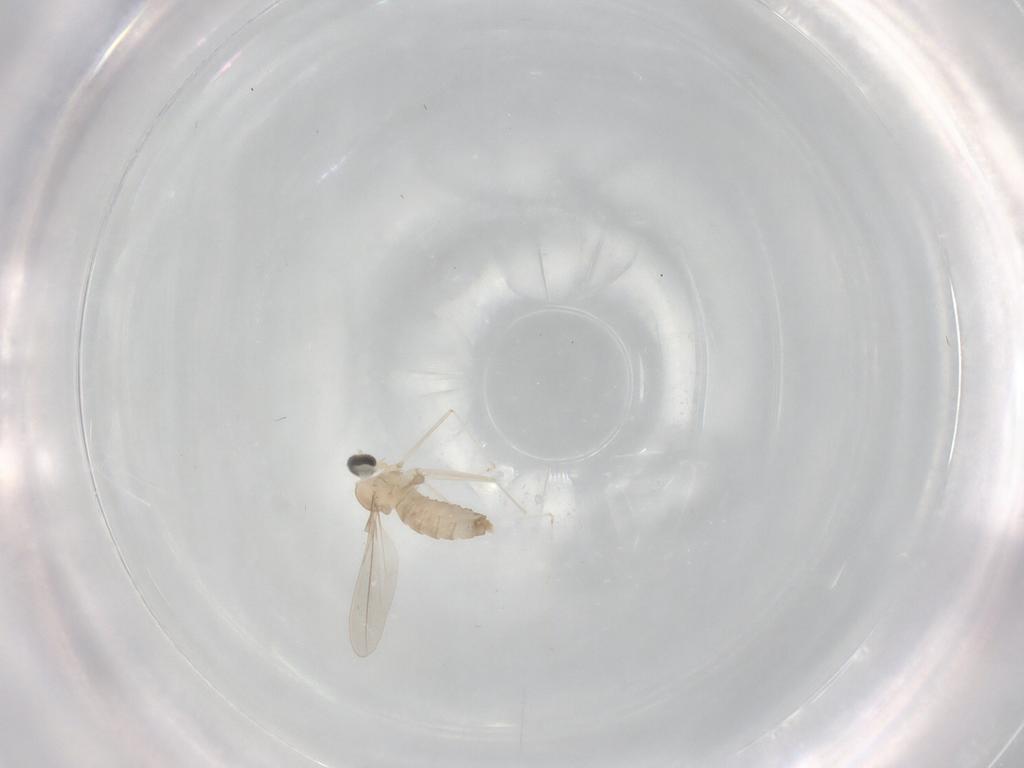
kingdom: Animalia
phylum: Arthropoda
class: Insecta
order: Diptera
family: Cecidomyiidae
